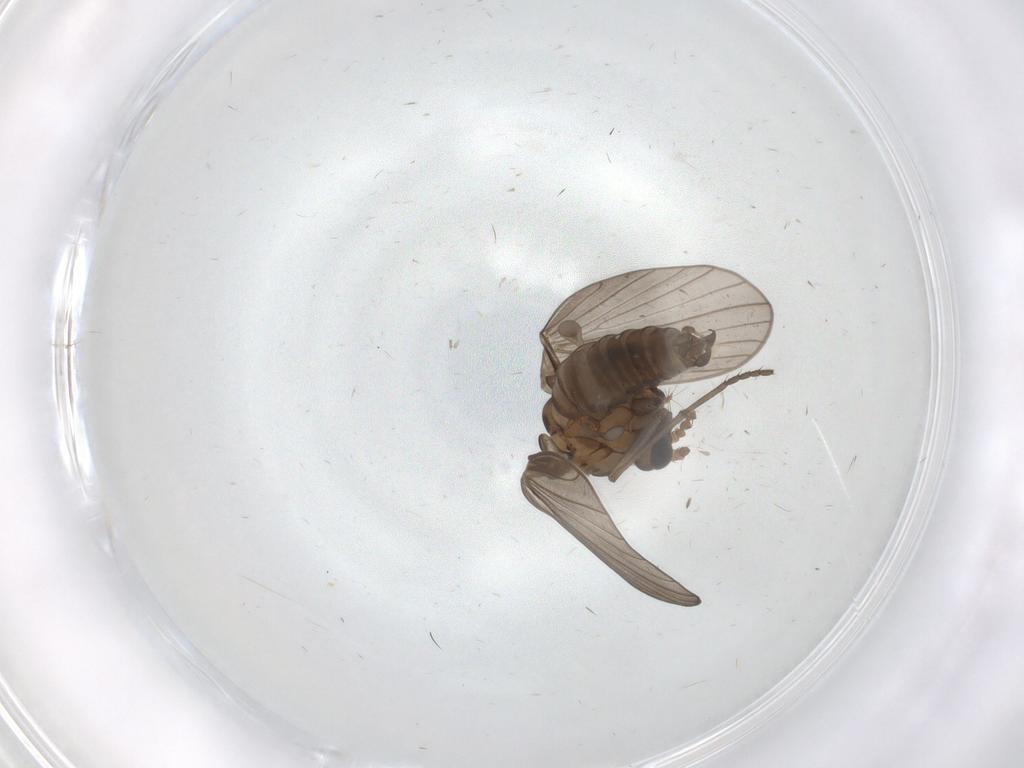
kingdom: Animalia
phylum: Arthropoda
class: Insecta
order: Diptera
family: Psychodidae
